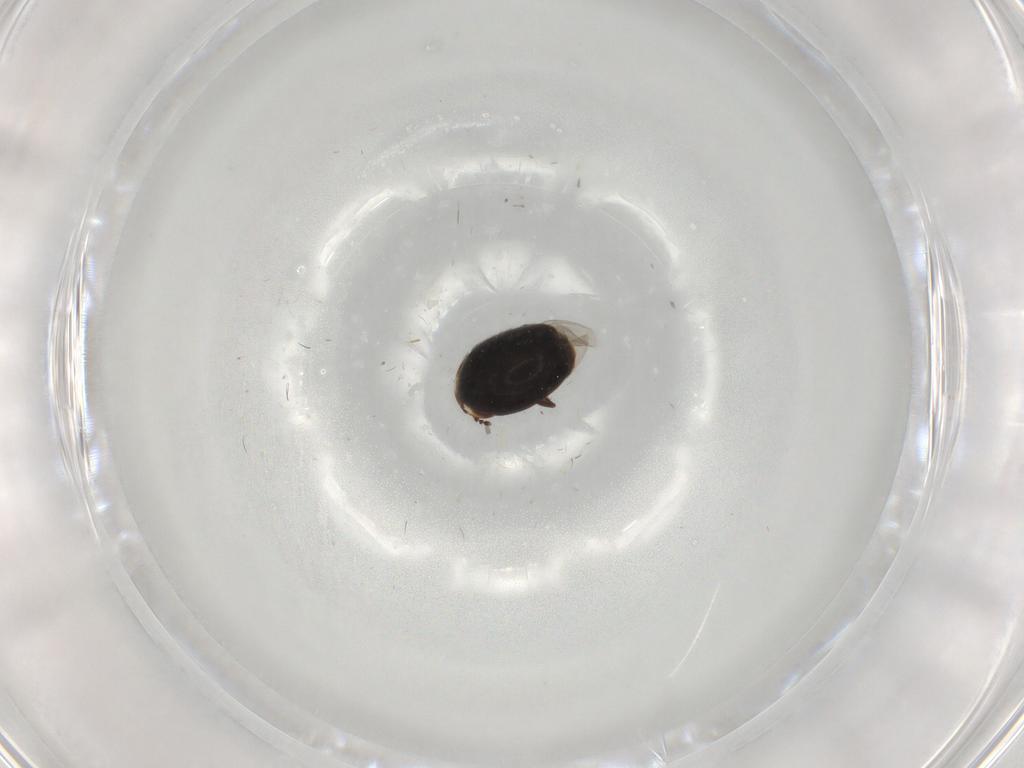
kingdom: Animalia
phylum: Arthropoda
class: Insecta
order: Coleoptera
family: Corylophidae
